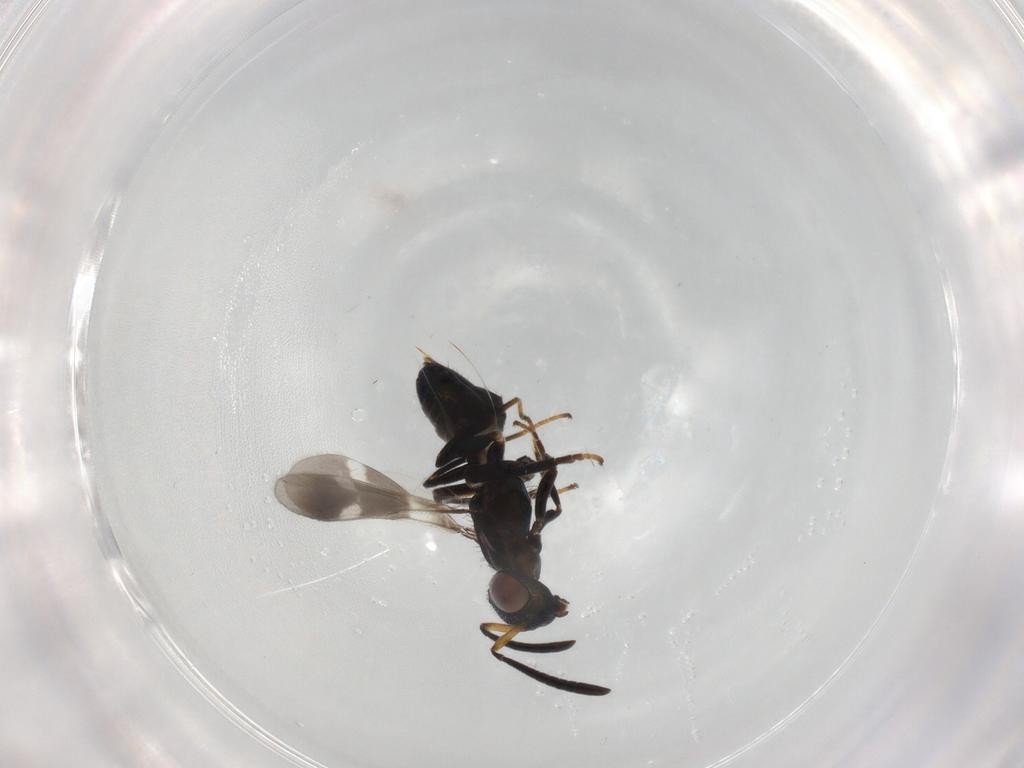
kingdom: Animalia
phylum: Arthropoda
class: Insecta
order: Hymenoptera
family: Eupelmidae
